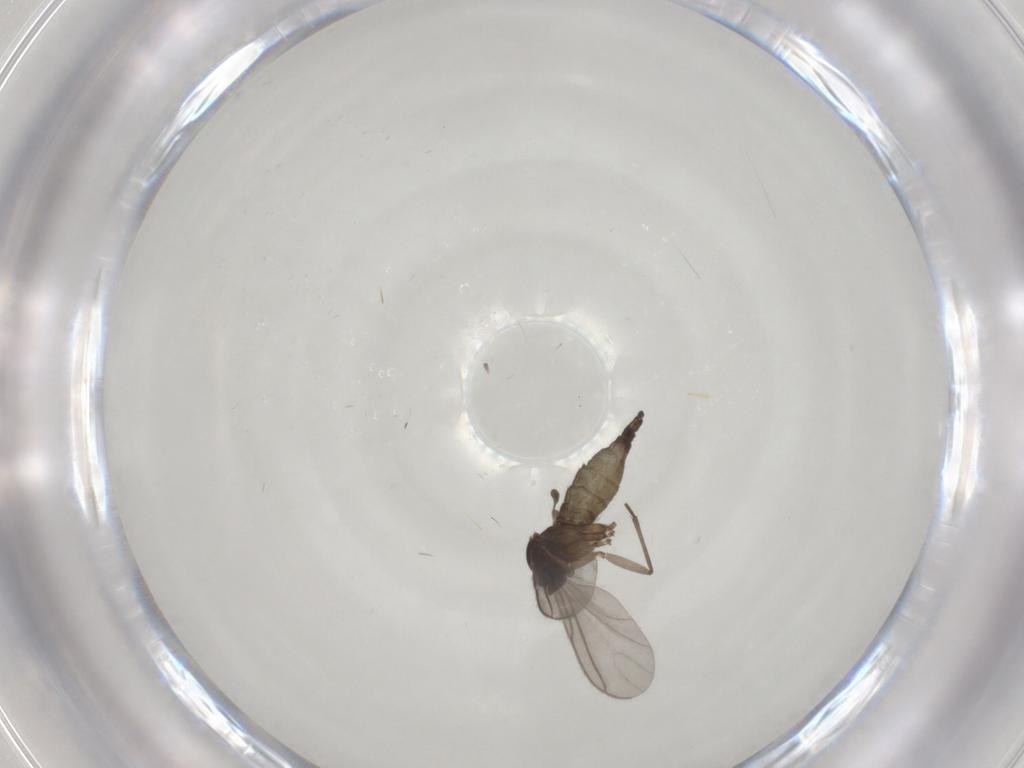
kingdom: Animalia
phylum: Arthropoda
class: Insecta
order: Diptera
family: Sciaridae
